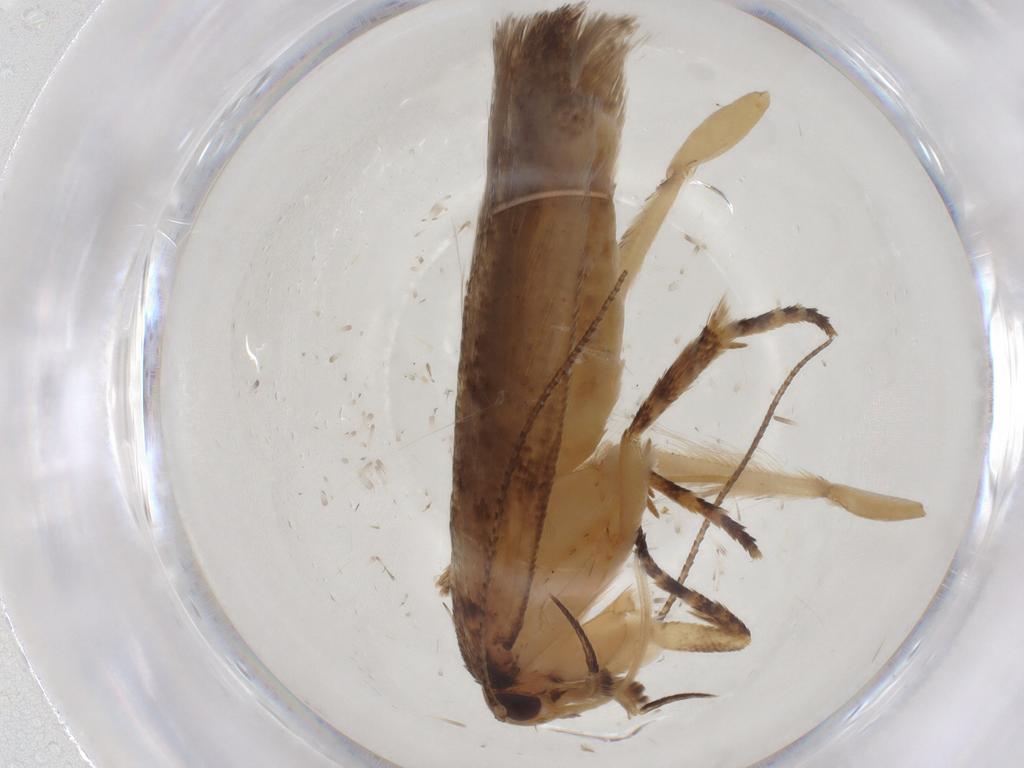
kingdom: Animalia
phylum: Arthropoda
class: Insecta
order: Lepidoptera
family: Gelechiidae
